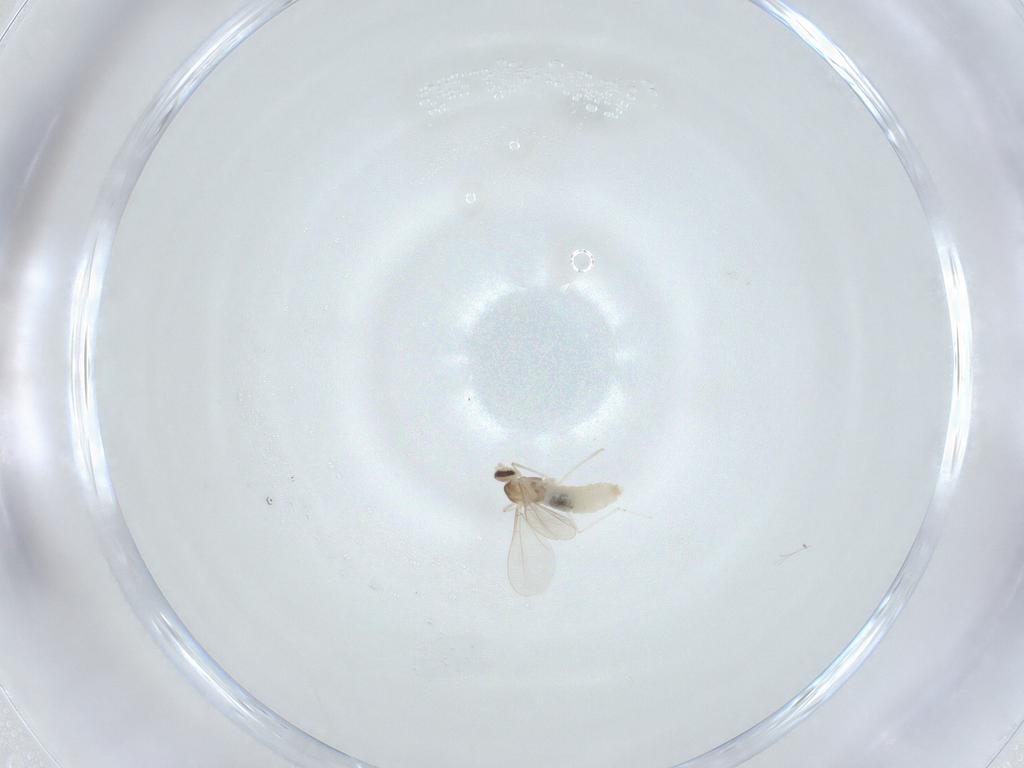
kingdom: Animalia
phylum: Arthropoda
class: Insecta
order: Diptera
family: Cecidomyiidae
